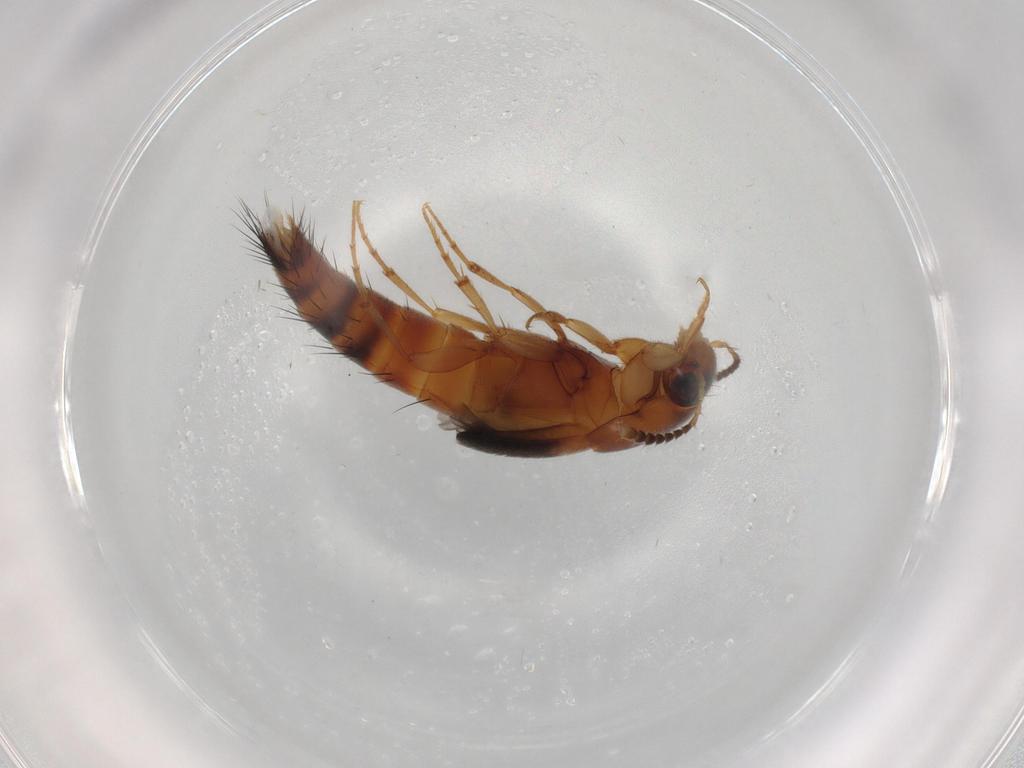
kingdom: Animalia
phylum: Arthropoda
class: Insecta
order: Coleoptera
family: Staphylinidae
